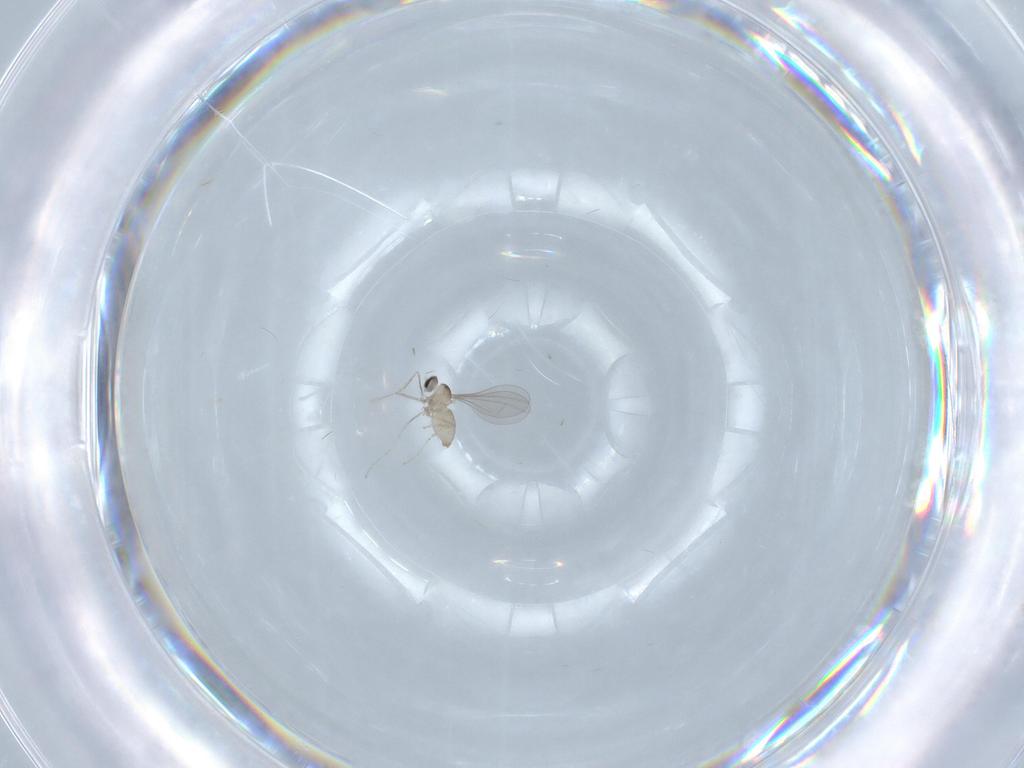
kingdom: Animalia
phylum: Arthropoda
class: Insecta
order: Diptera
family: Cecidomyiidae
